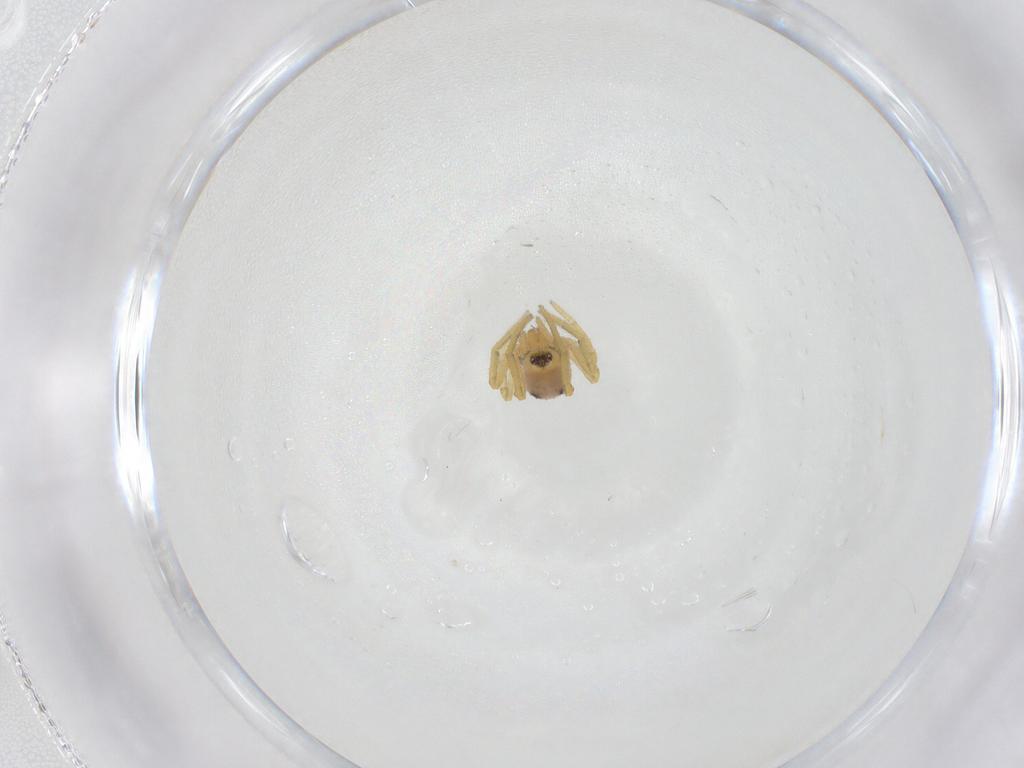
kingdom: Animalia
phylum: Arthropoda
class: Arachnida
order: Araneae
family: Theridiidae
